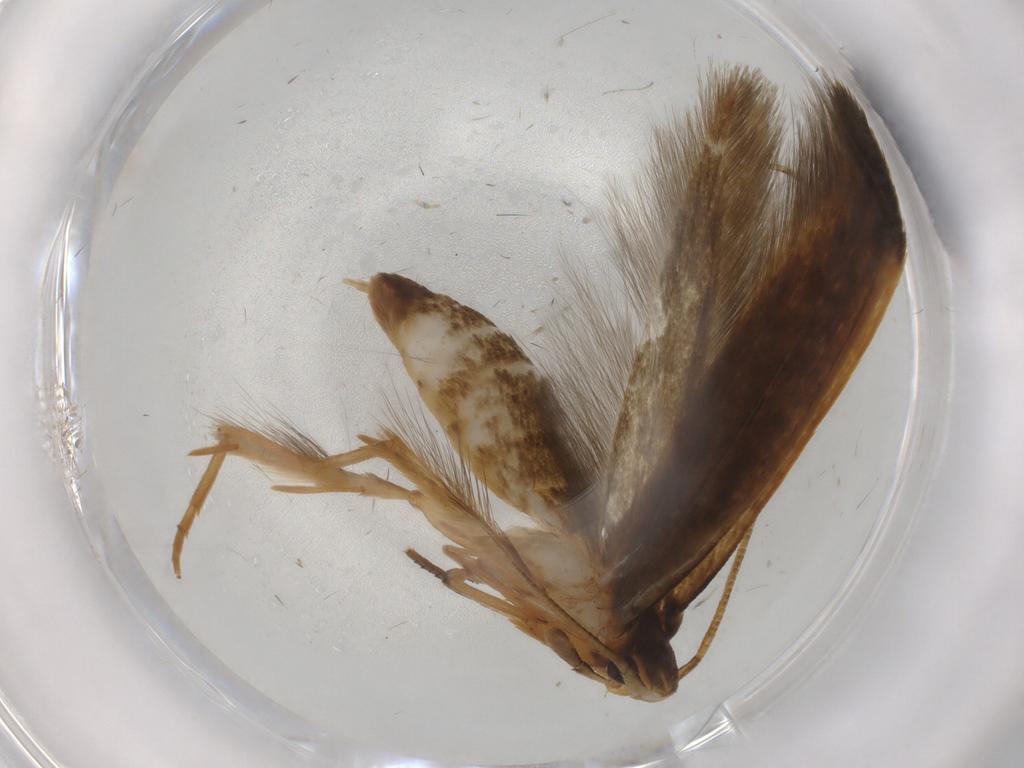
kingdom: Animalia
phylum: Arthropoda
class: Insecta
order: Lepidoptera
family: Tineidae
